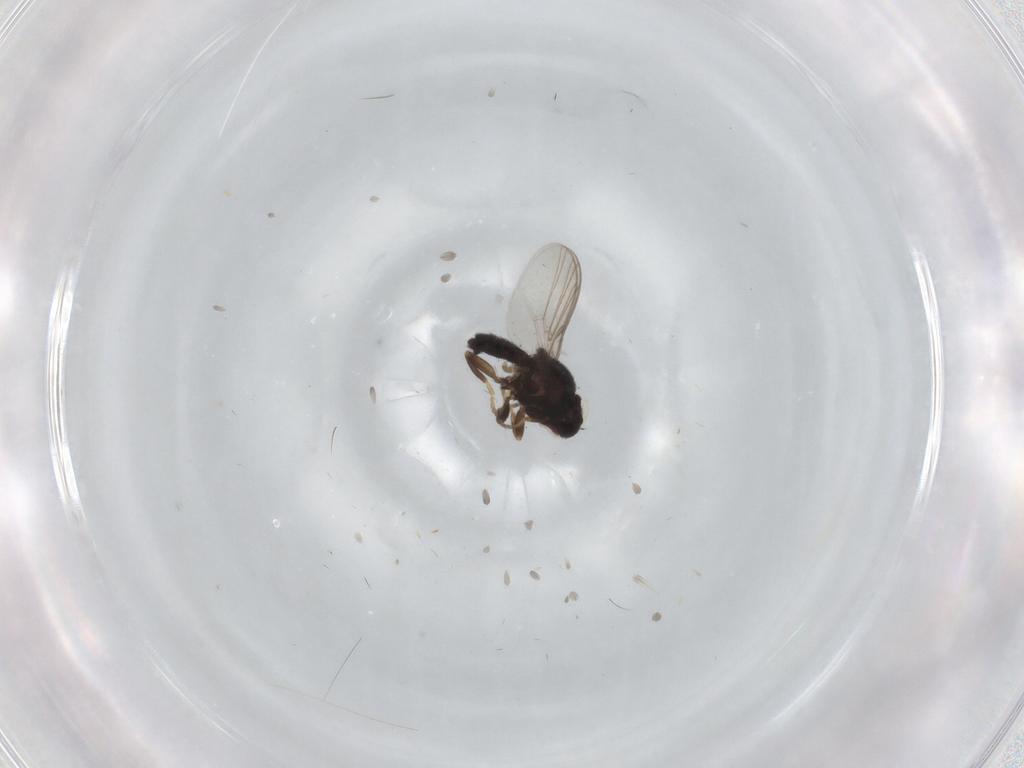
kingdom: Animalia
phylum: Arthropoda
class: Insecta
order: Diptera
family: Chloropidae
